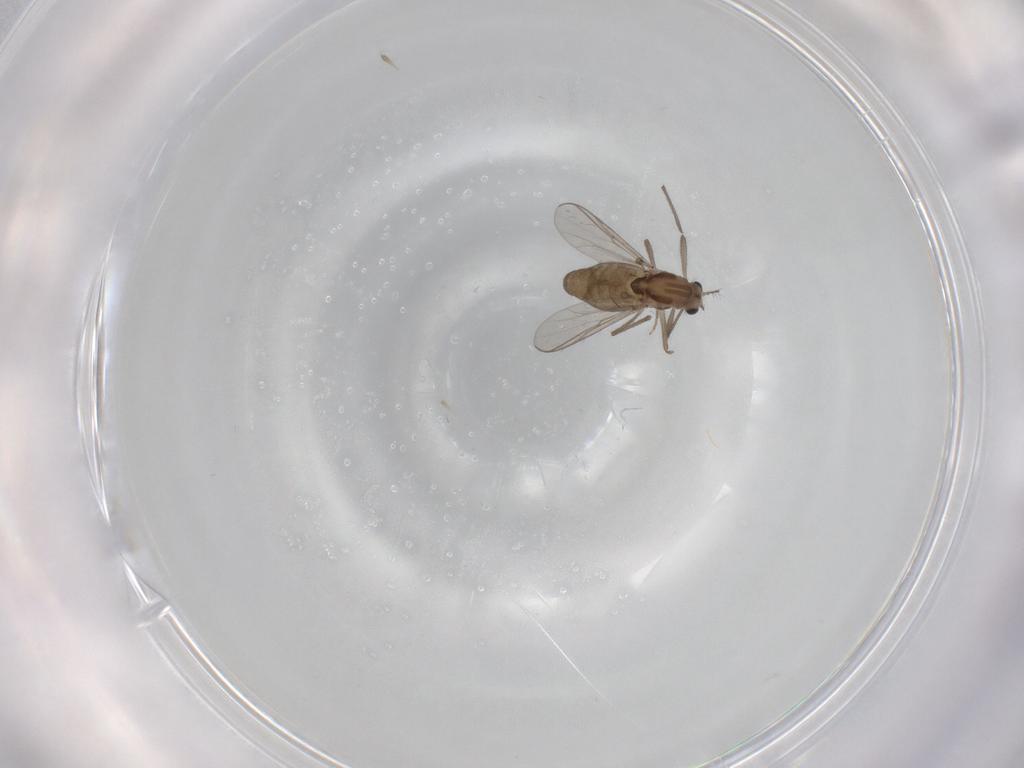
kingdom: Animalia
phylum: Arthropoda
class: Insecta
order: Diptera
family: Chironomidae
